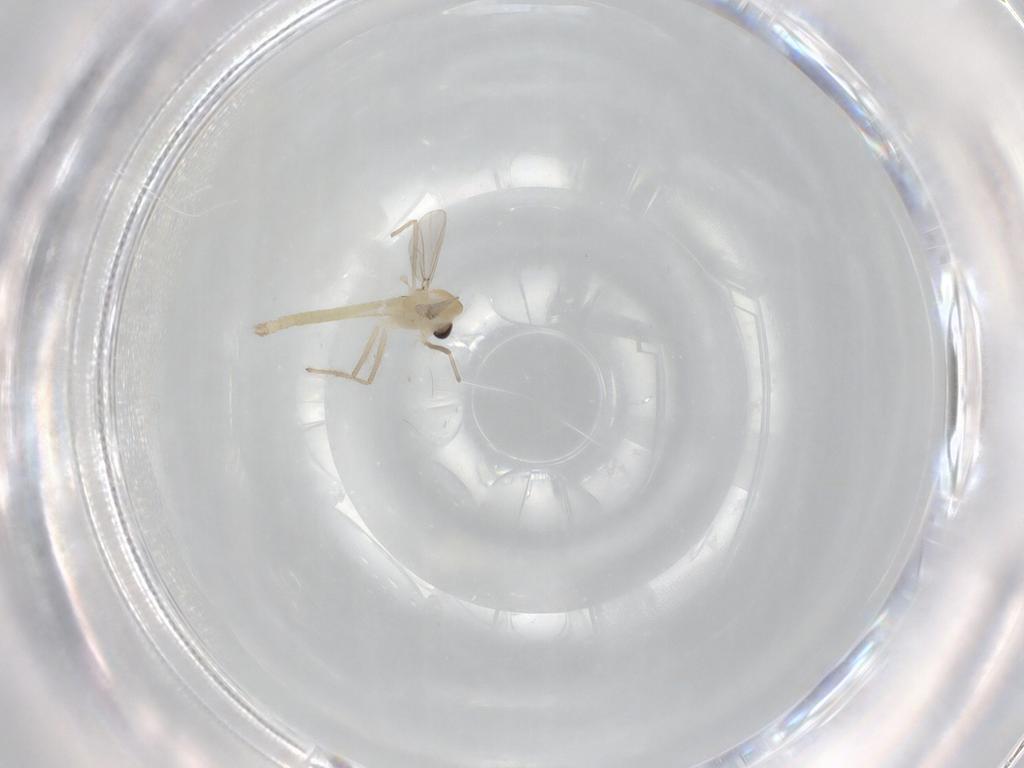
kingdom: Animalia
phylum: Arthropoda
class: Insecta
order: Diptera
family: Chironomidae
